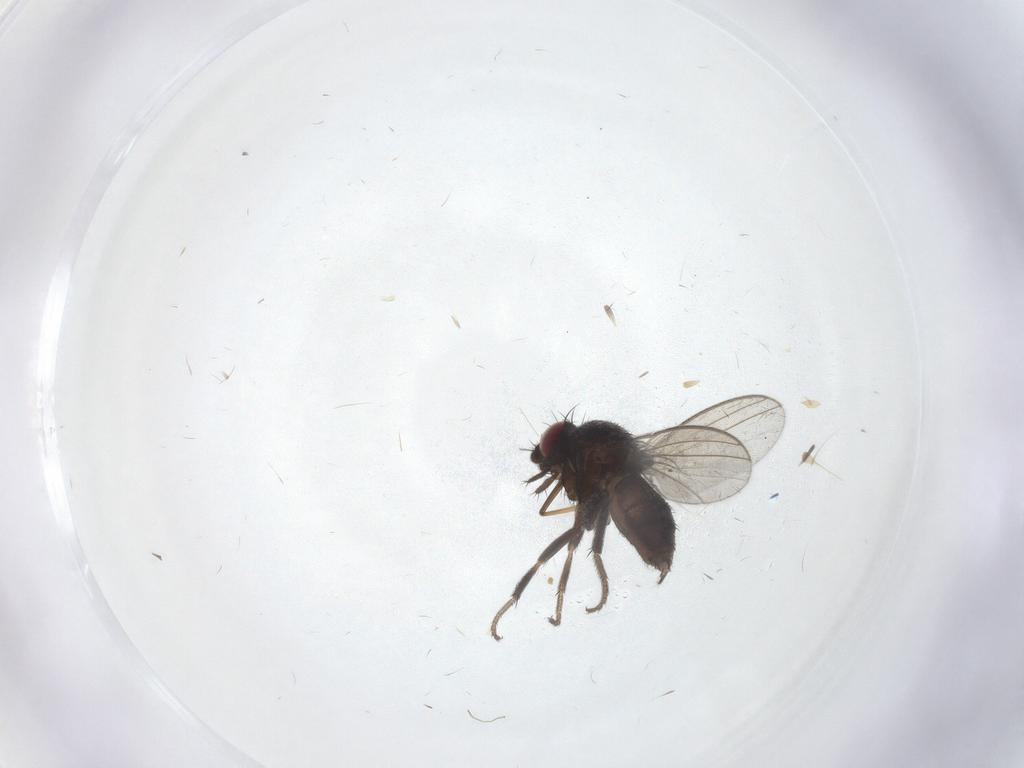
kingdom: Animalia
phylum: Arthropoda
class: Insecta
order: Diptera
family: Milichiidae
